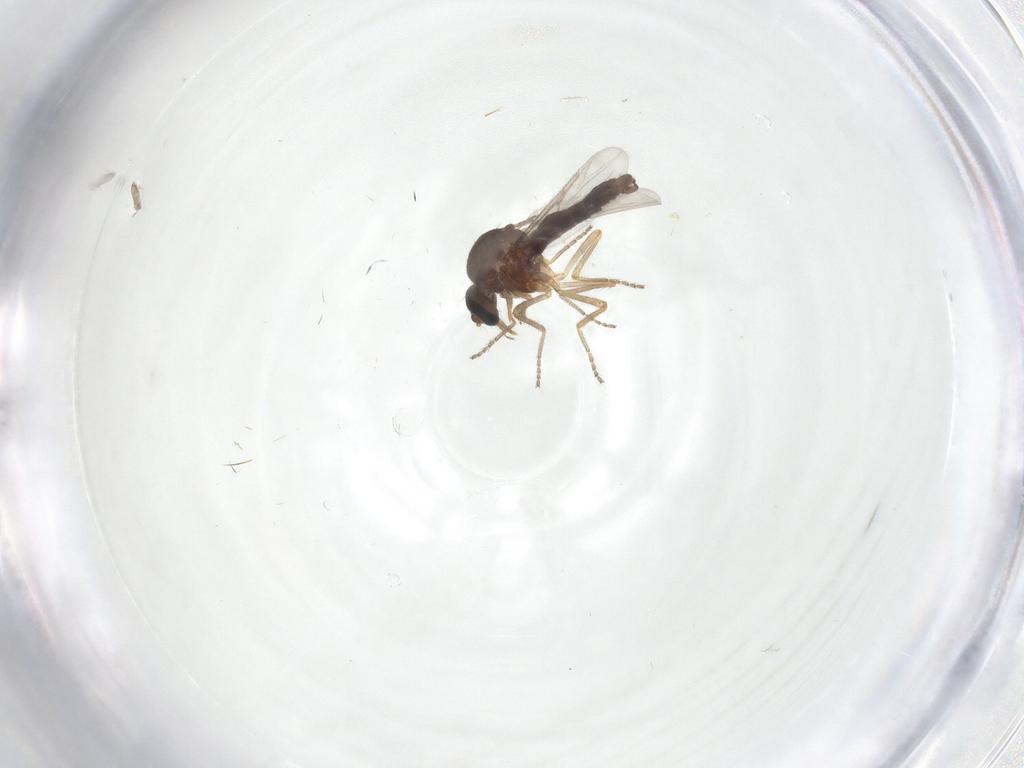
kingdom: Animalia
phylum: Arthropoda
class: Insecta
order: Diptera
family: Ceratopogonidae
